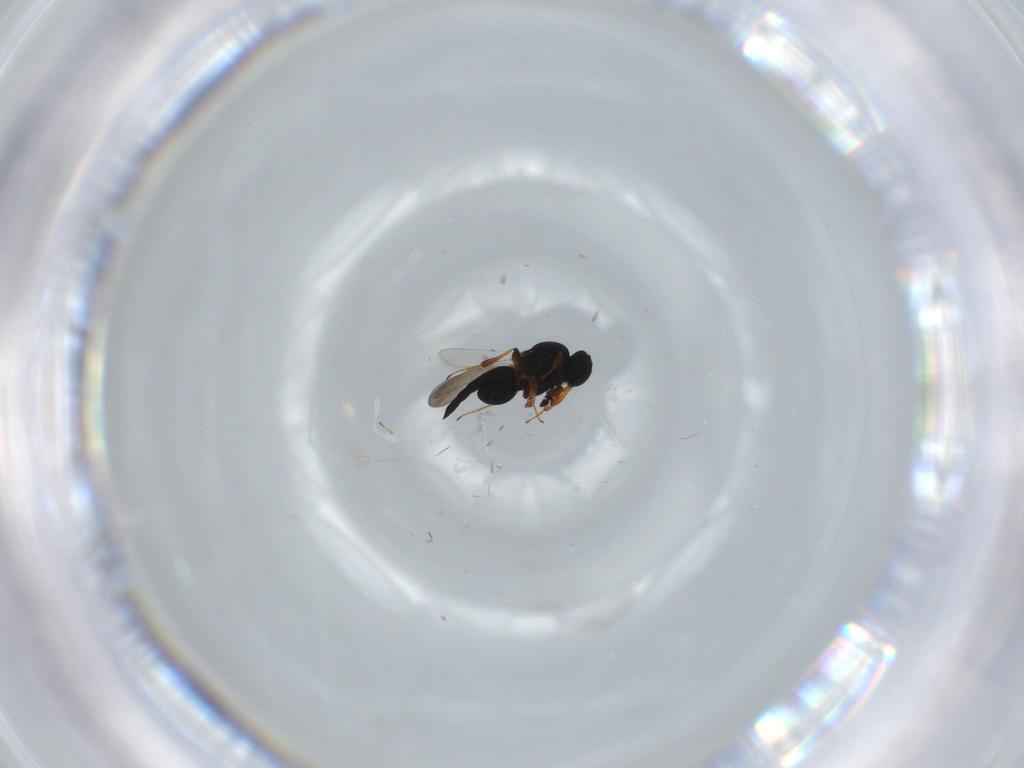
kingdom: Animalia
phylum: Arthropoda
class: Insecta
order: Hymenoptera
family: Platygastridae
